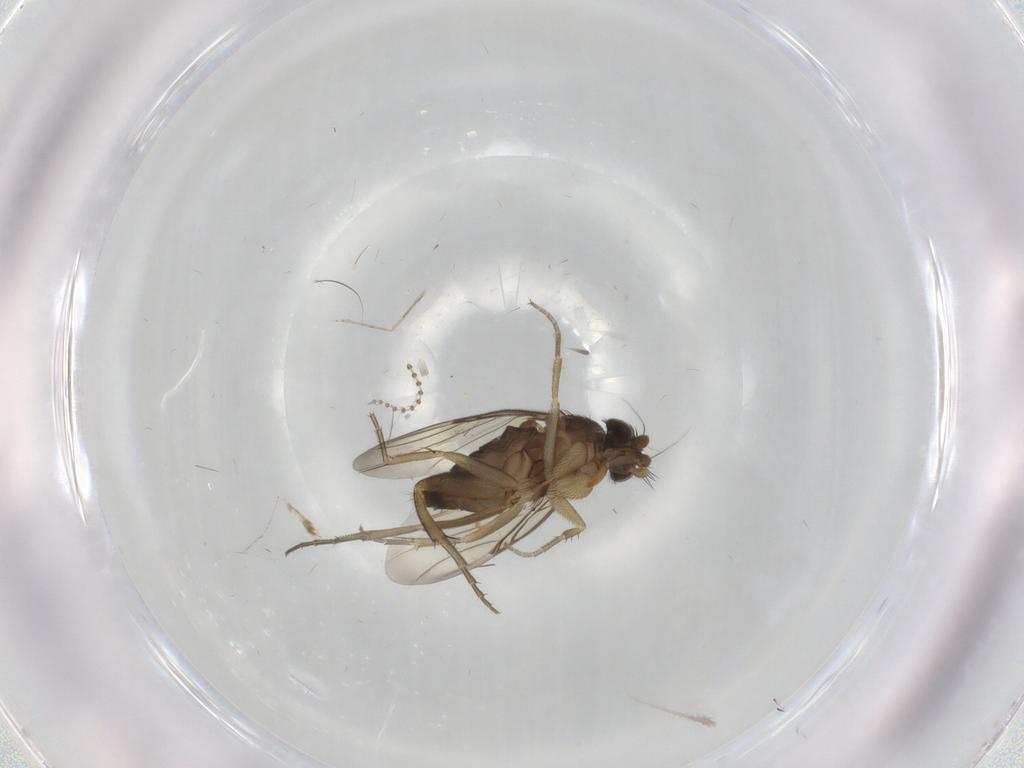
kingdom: Animalia
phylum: Arthropoda
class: Insecta
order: Diptera
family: Phoridae
